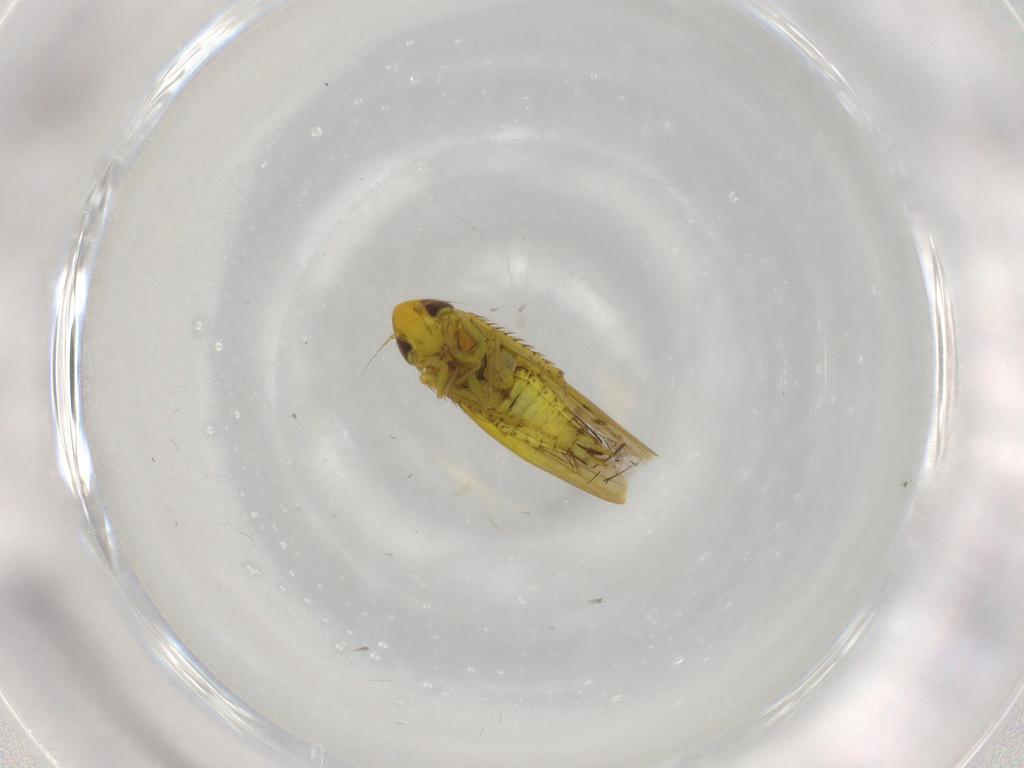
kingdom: Animalia
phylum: Arthropoda
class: Insecta
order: Hemiptera
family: Cicadellidae
